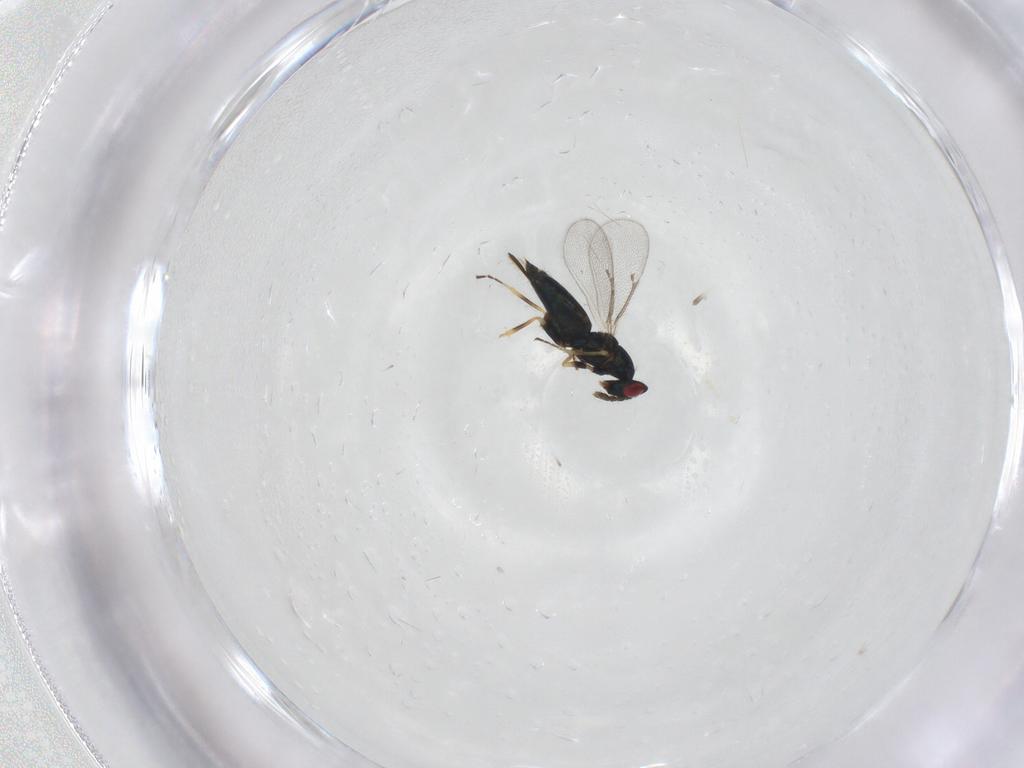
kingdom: Animalia
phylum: Arthropoda
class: Insecta
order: Hymenoptera
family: Eulophidae
